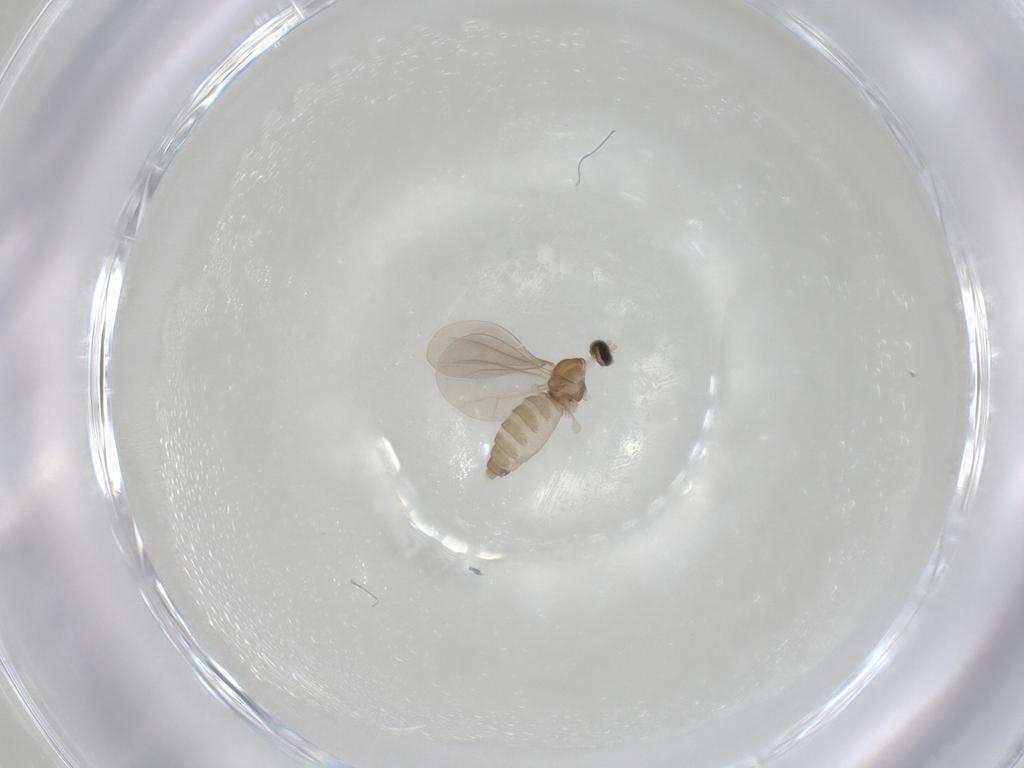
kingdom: Animalia
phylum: Arthropoda
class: Insecta
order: Diptera
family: Cecidomyiidae
